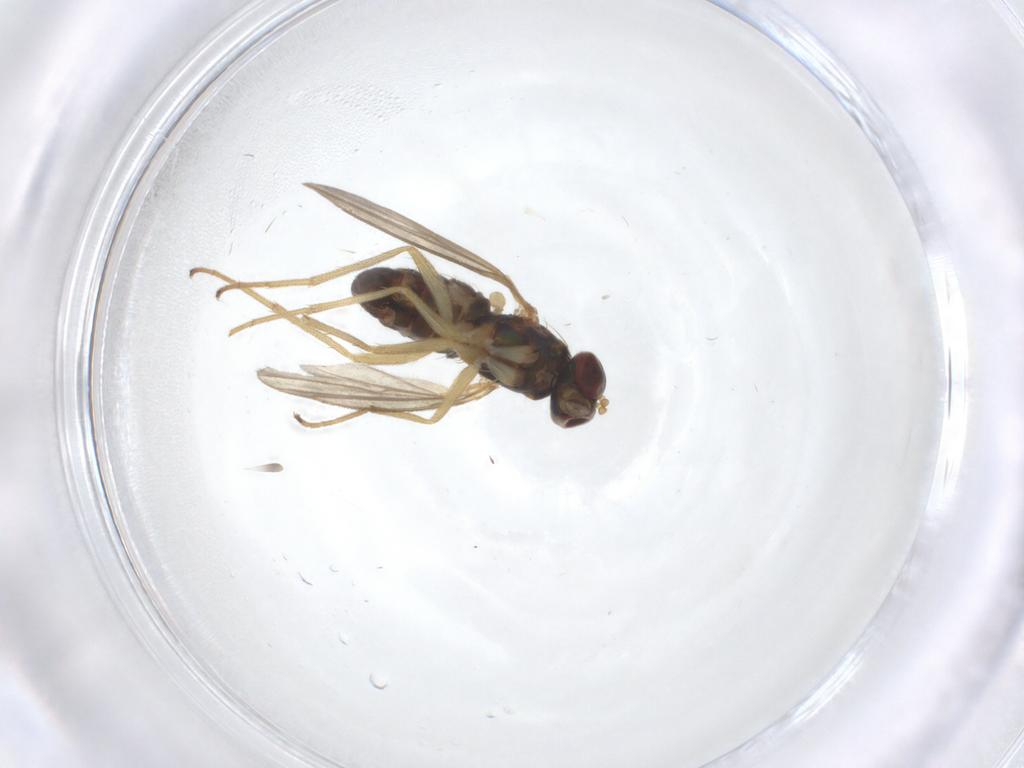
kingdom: Animalia
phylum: Arthropoda
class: Insecta
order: Diptera
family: Dolichopodidae
